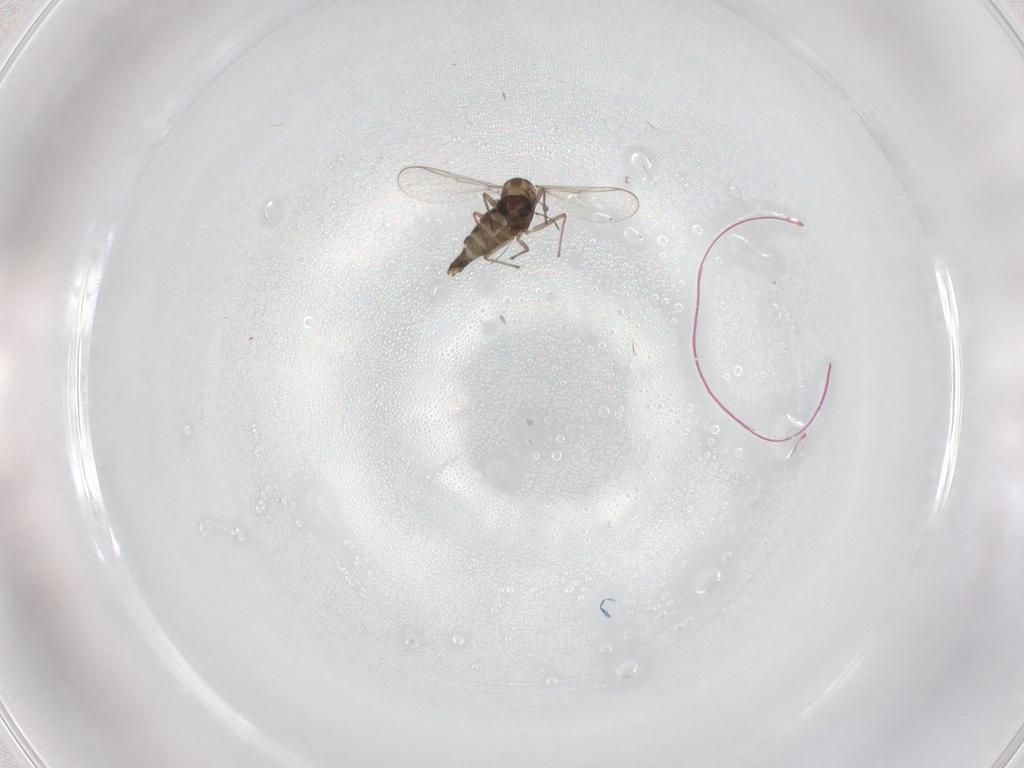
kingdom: Animalia
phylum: Arthropoda
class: Insecta
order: Diptera
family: Chironomidae
